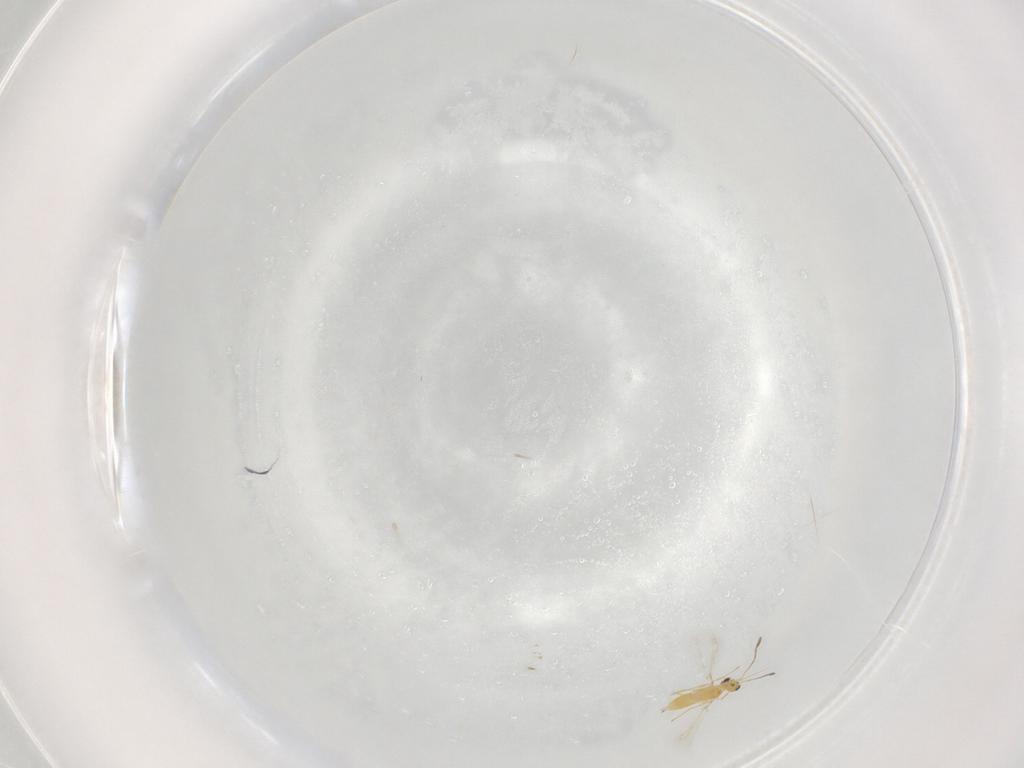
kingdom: Animalia
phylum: Arthropoda
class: Insecta
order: Hymenoptera
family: Mymaridae
